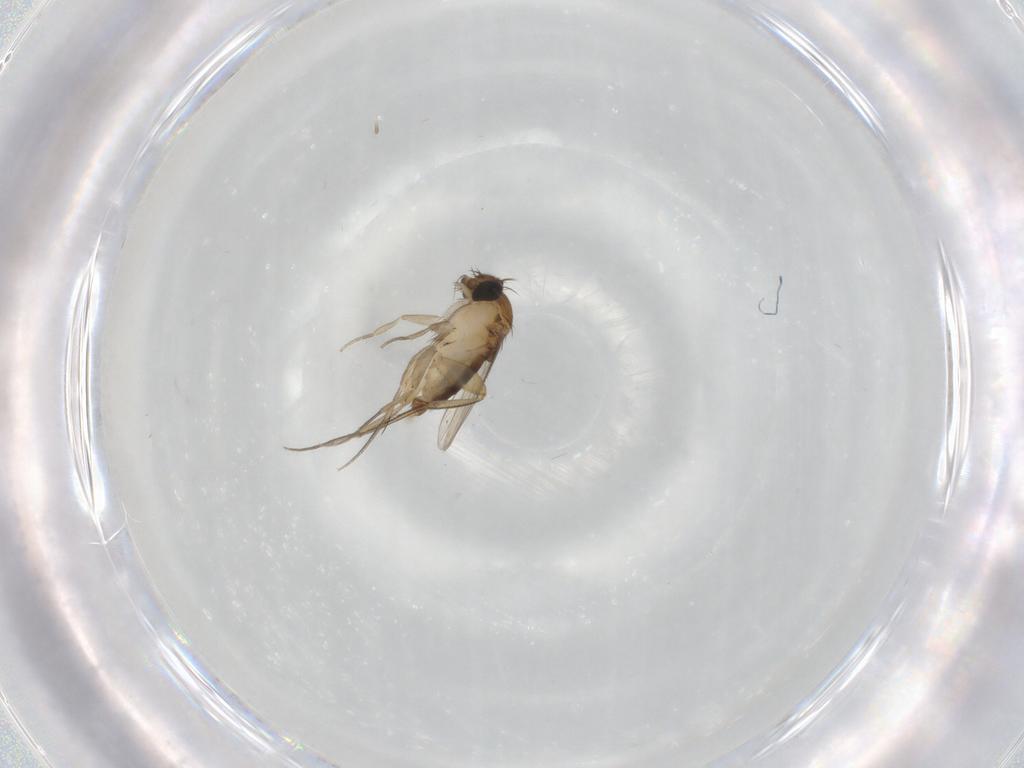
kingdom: Animalia
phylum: Arthropoda
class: Insecta
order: Diptera
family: Phoridae
